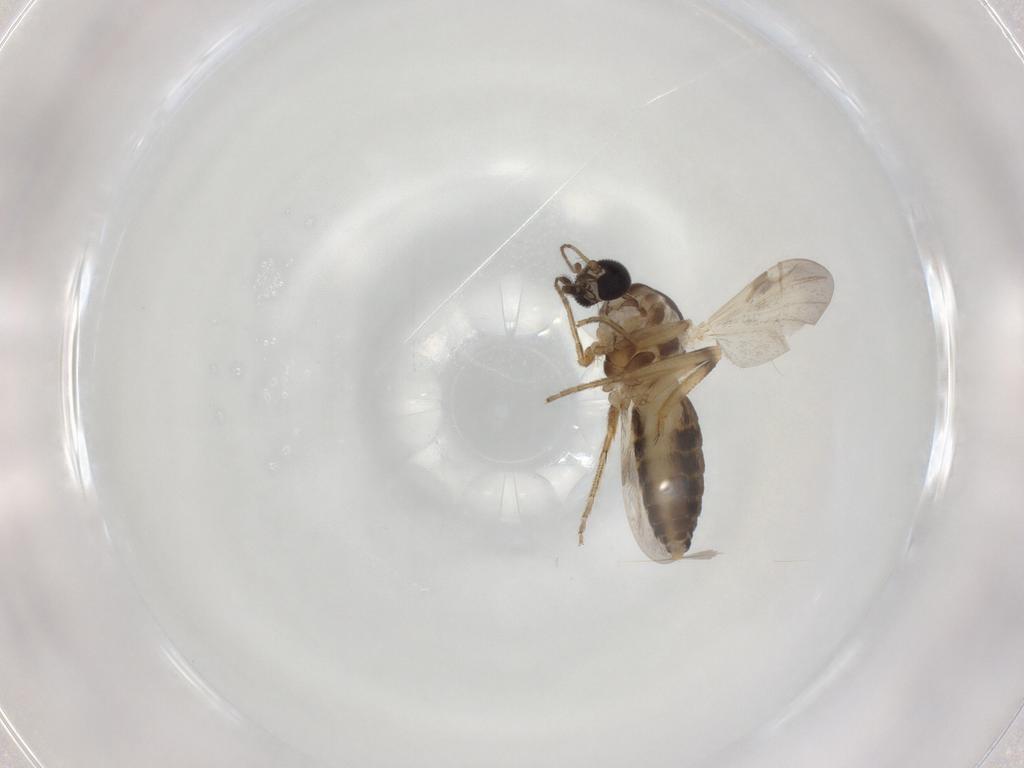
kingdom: Animalia
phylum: Arthropoda
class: Insecta
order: Diptera
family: Ceratopogonidae
